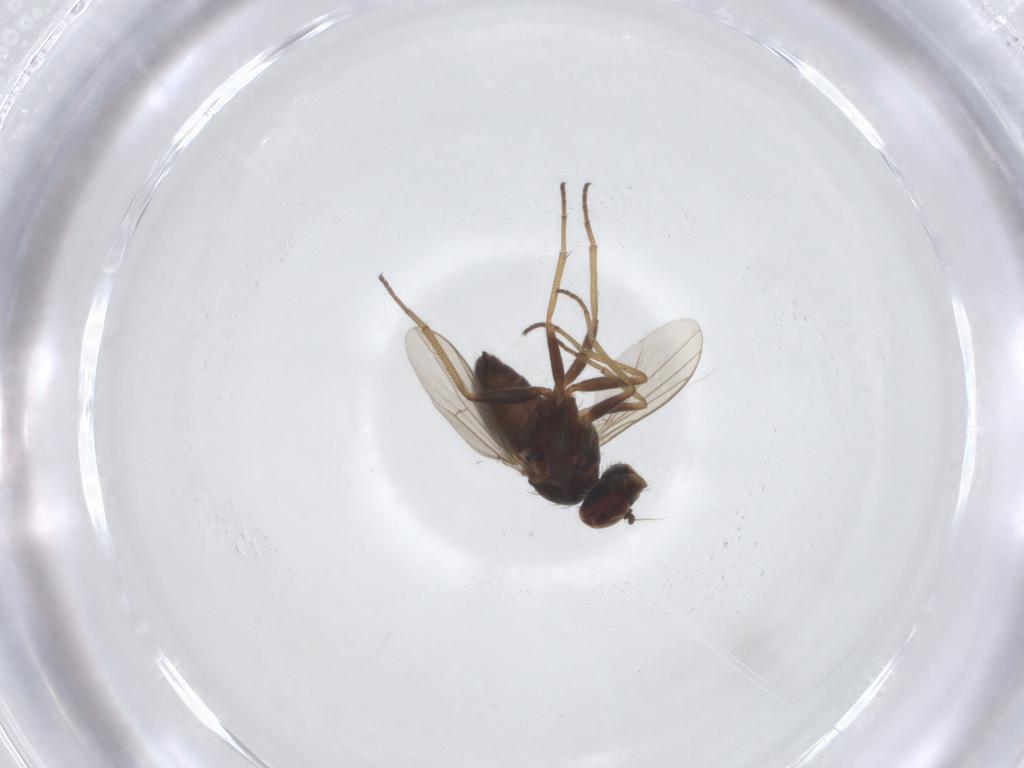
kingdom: Animalia
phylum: Arthropoda
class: Insecta
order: Diptera
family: Dolichopodidae
